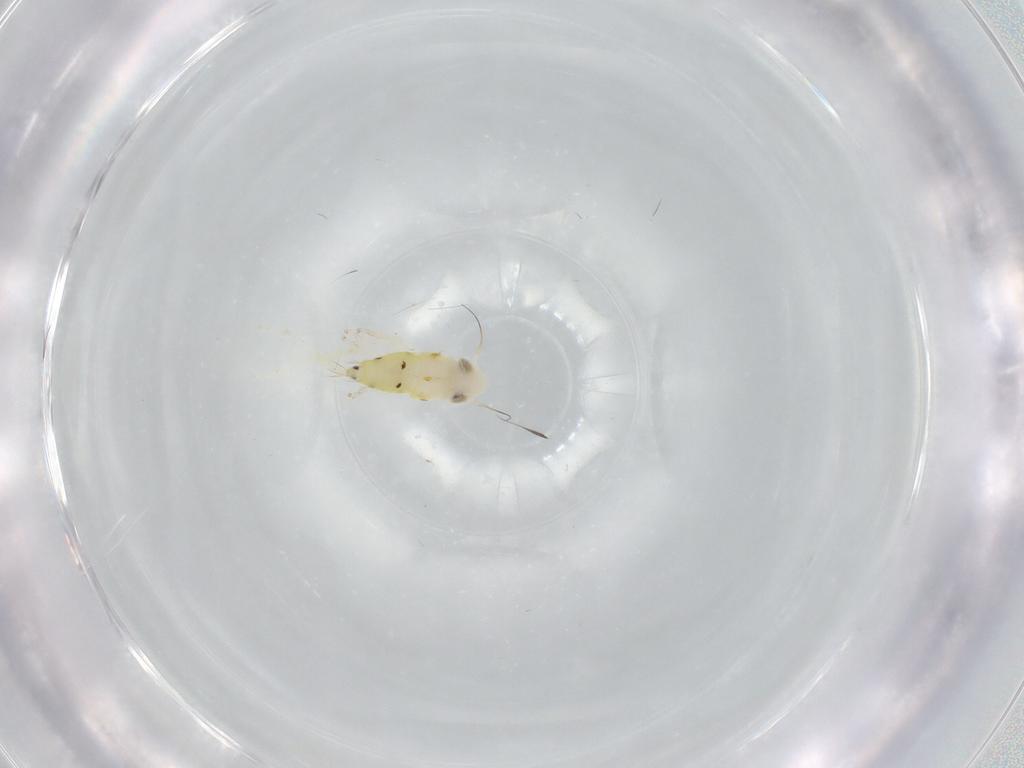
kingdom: Animalia
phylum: Arthropoda
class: Insecta
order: Hemiptera
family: Cicadellidae
